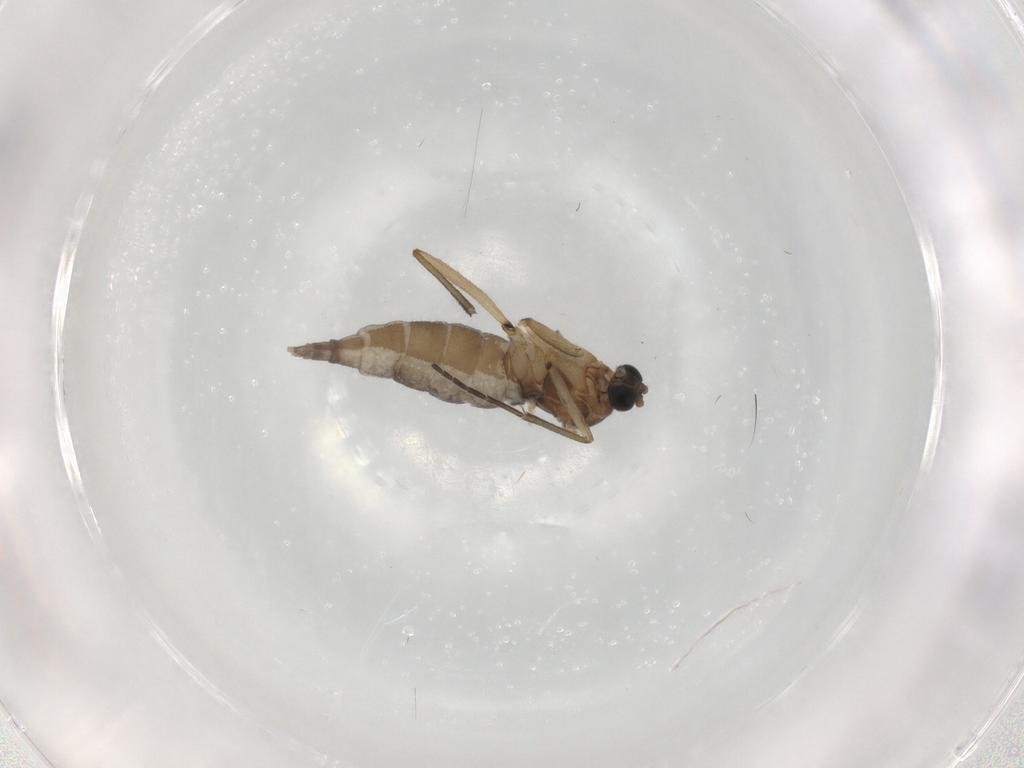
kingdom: Animalia
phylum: Arthropoda
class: Insecta
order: Diptera
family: Sciaridae
